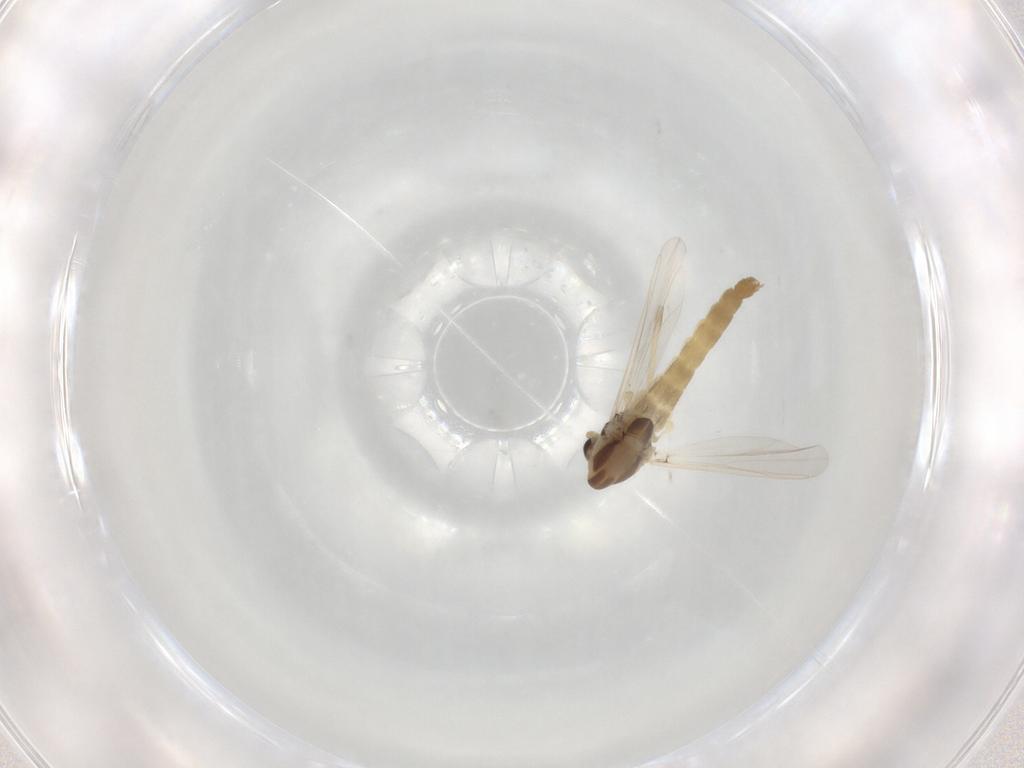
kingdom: Animalia
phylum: Arthropoda
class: Insecta
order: Diptera
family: Chironomidae
